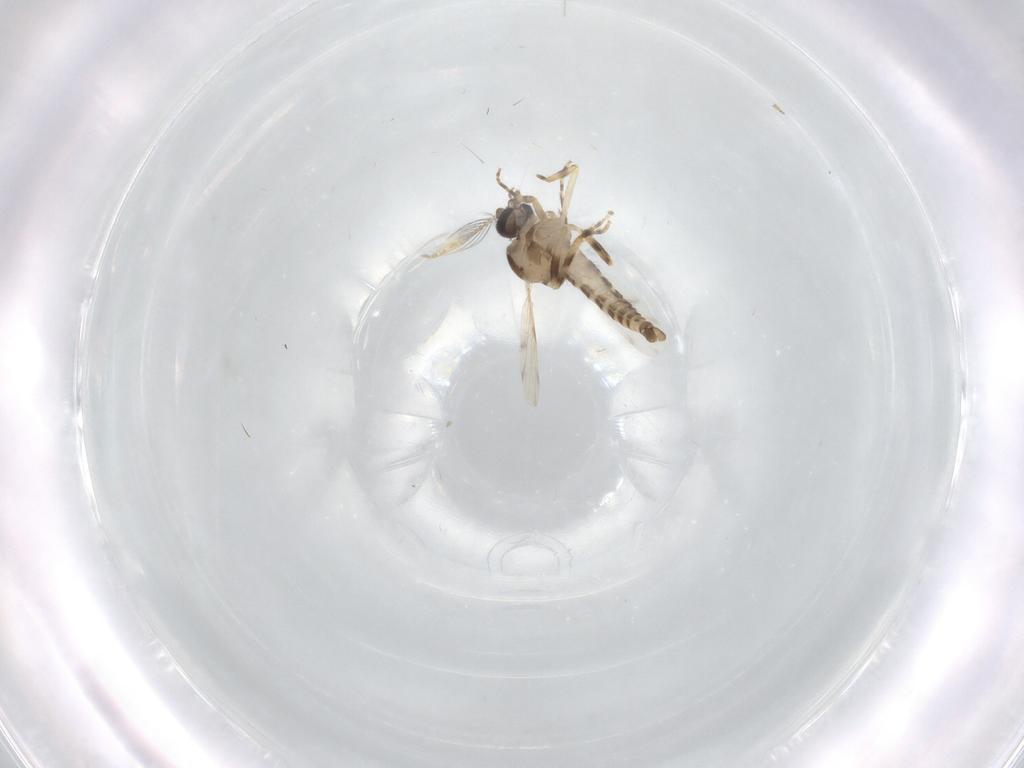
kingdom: Animalia
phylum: Arthropoda
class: Insecta
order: Diptera
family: Ceratopogonidae
